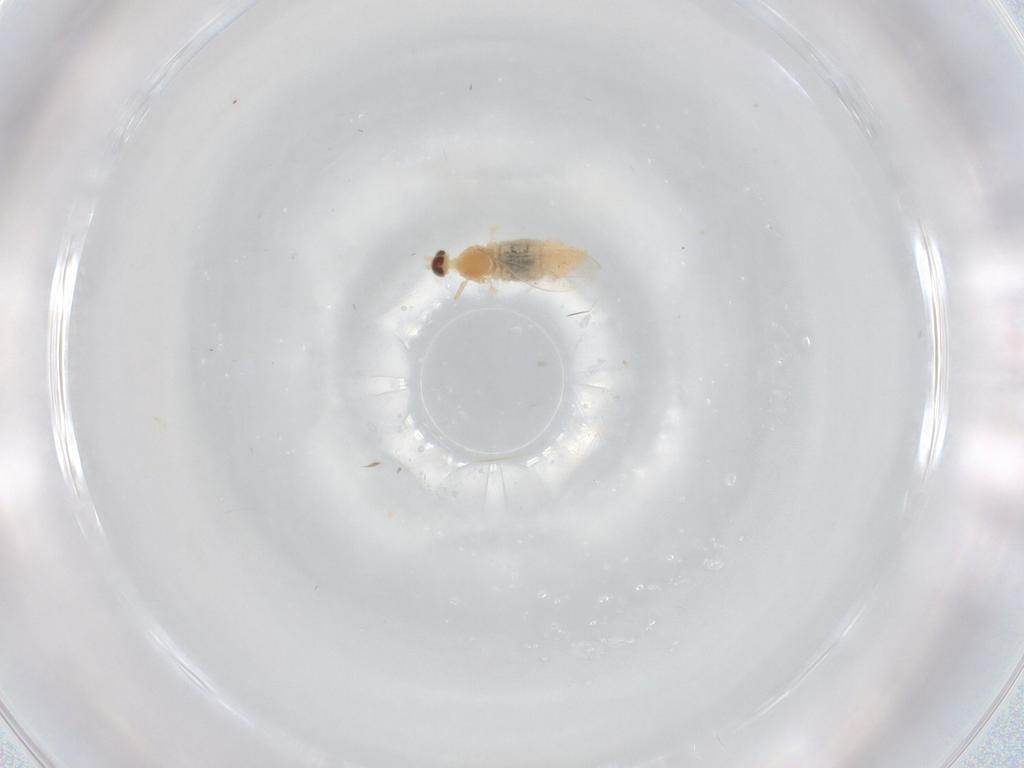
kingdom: Animalia
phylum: Arthropoda
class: Insecta
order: Diptera
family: Cecidomyiidae
